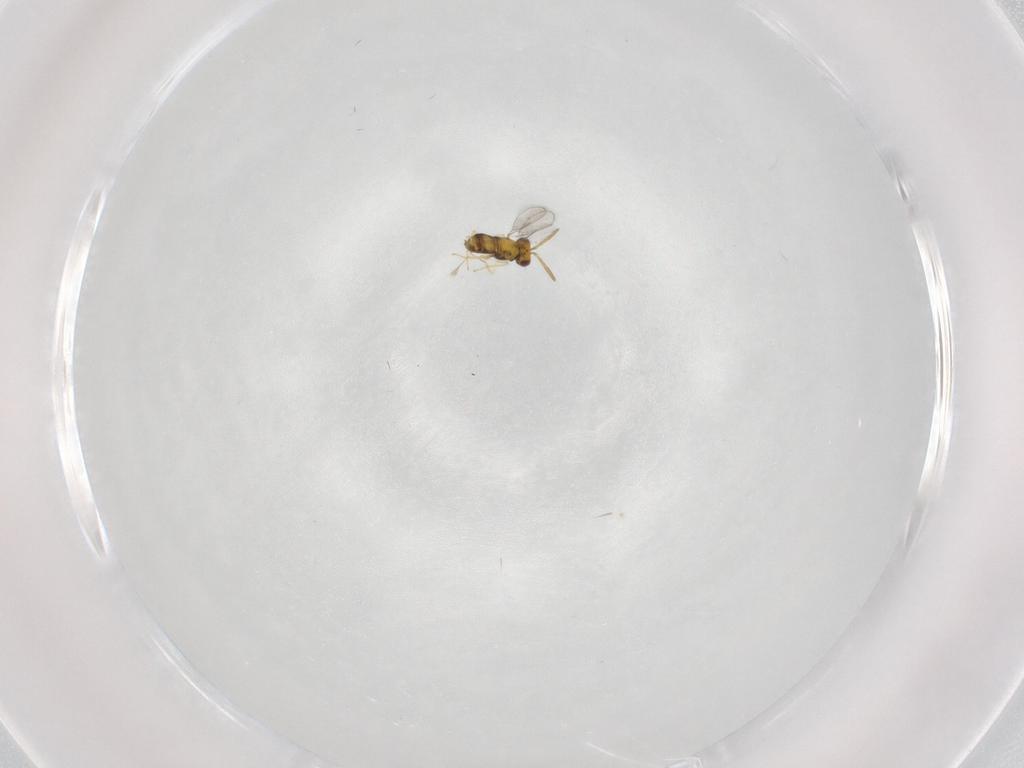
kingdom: Animalia
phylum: Arthropoda
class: Insecta
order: Hymenoptera
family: Aphelinidae
